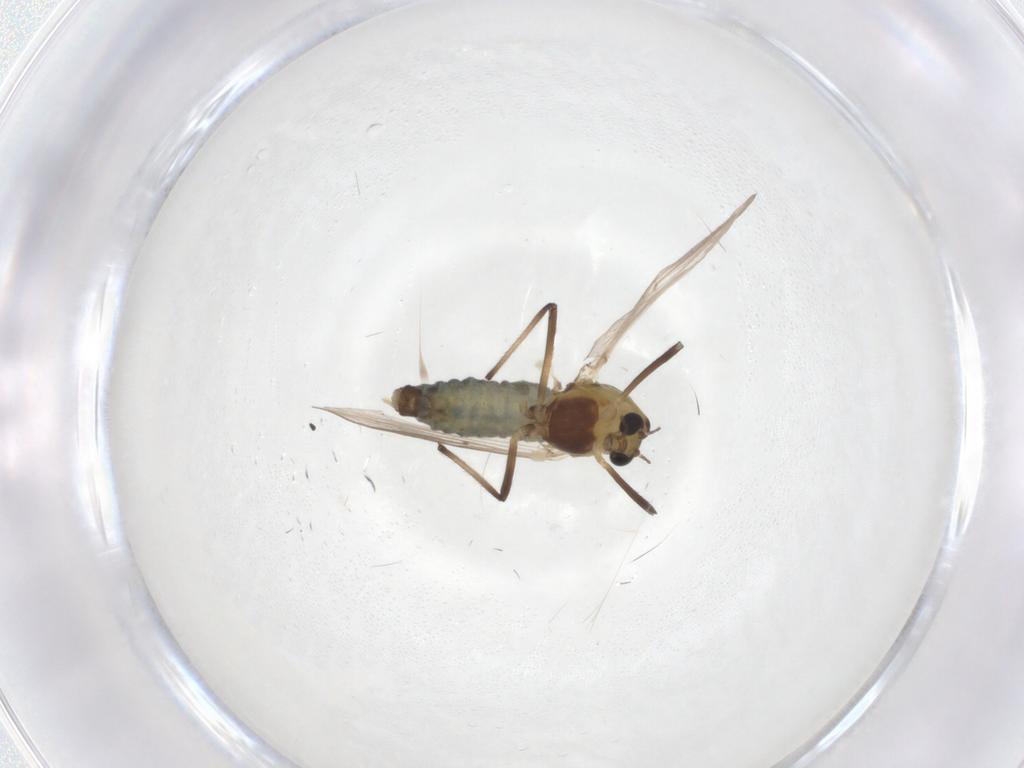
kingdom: Animalia
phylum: Arthropoda
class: Insecta
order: Diptera
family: Chironomidae
